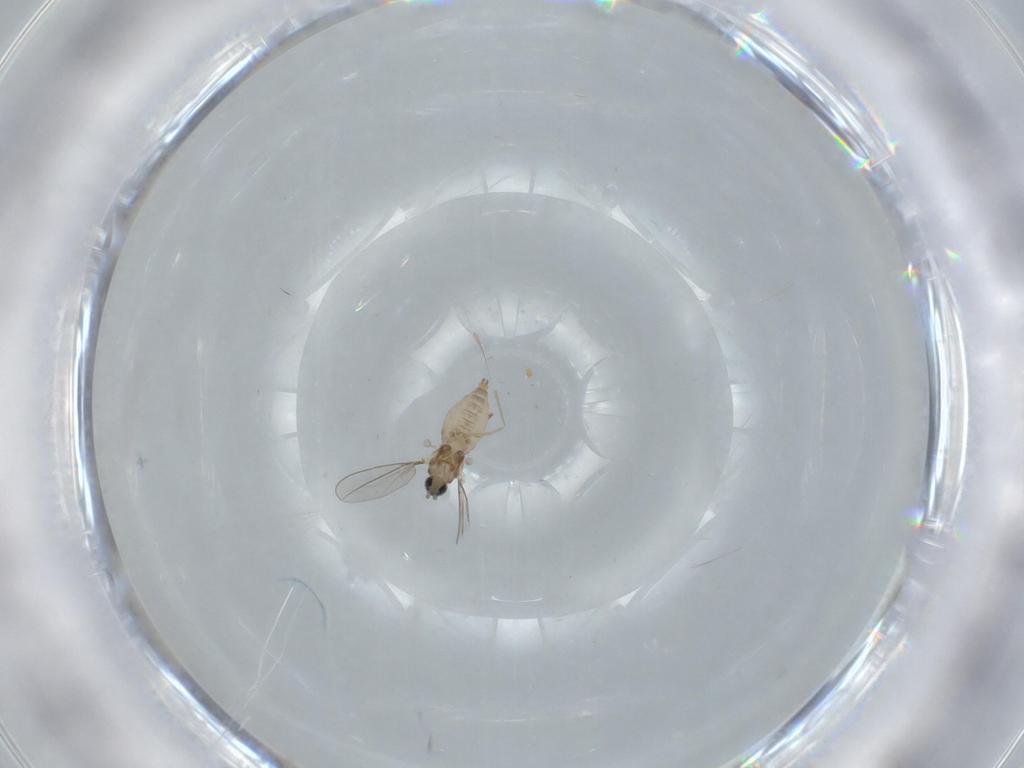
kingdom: Animalia
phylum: Arthropoda
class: Insecta
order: Diptera
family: Cecidomyiidae
